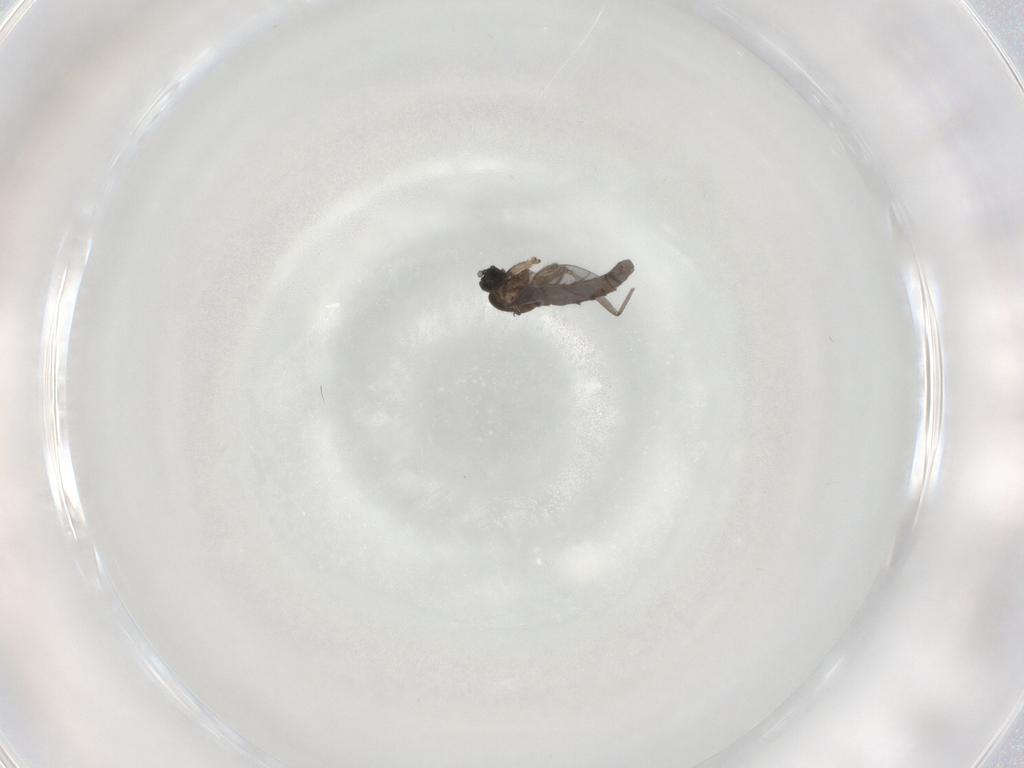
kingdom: Animalia
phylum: Arthropoda
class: Insecta
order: Diptera
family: Sciaridae
